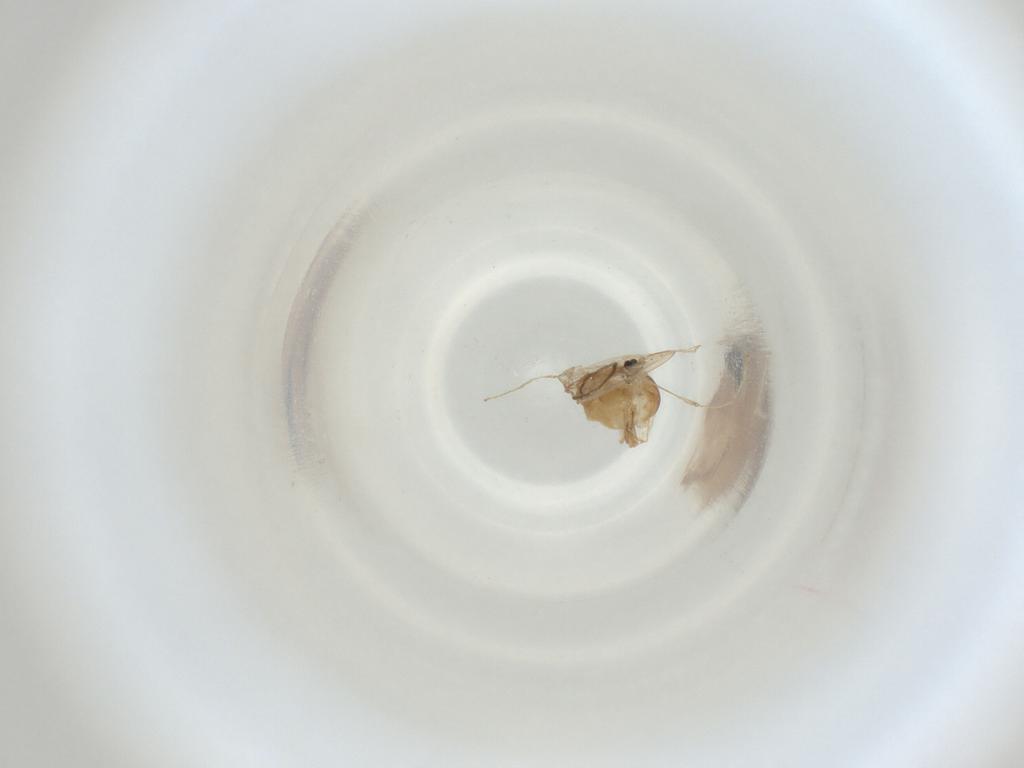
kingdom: Animalia
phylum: Arthropoda
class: Insecta
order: Diptera
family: Cecidomyiidae
